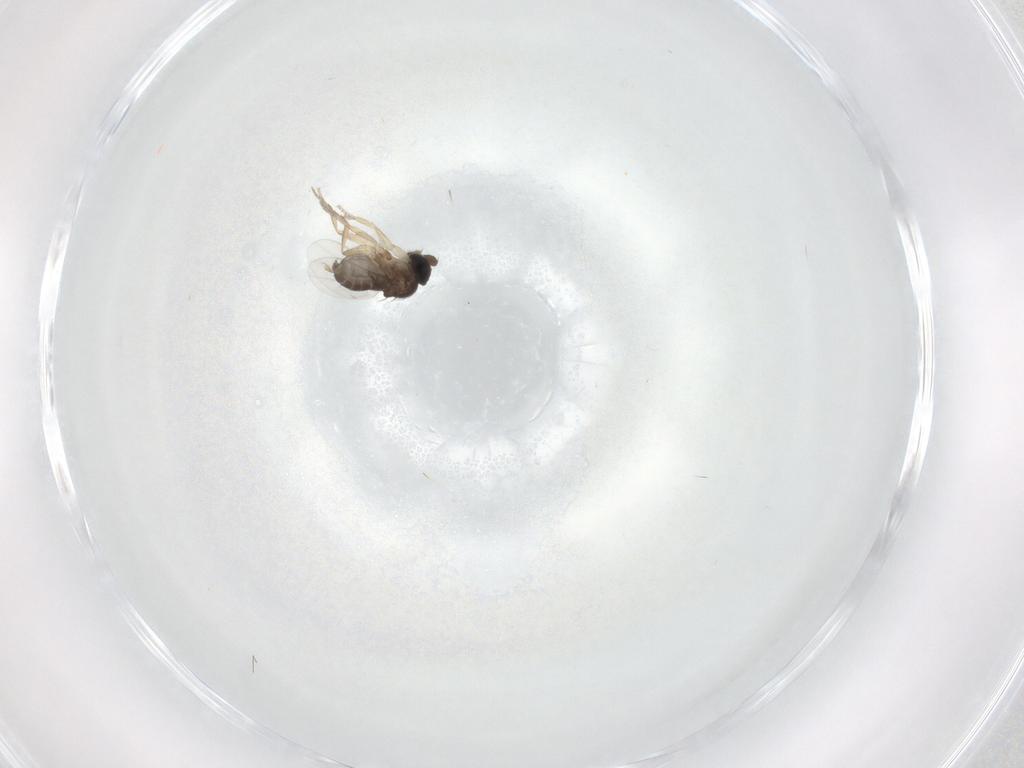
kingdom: Animalia
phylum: Arthropoda
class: Insecta
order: Diptera
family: Phoridae
